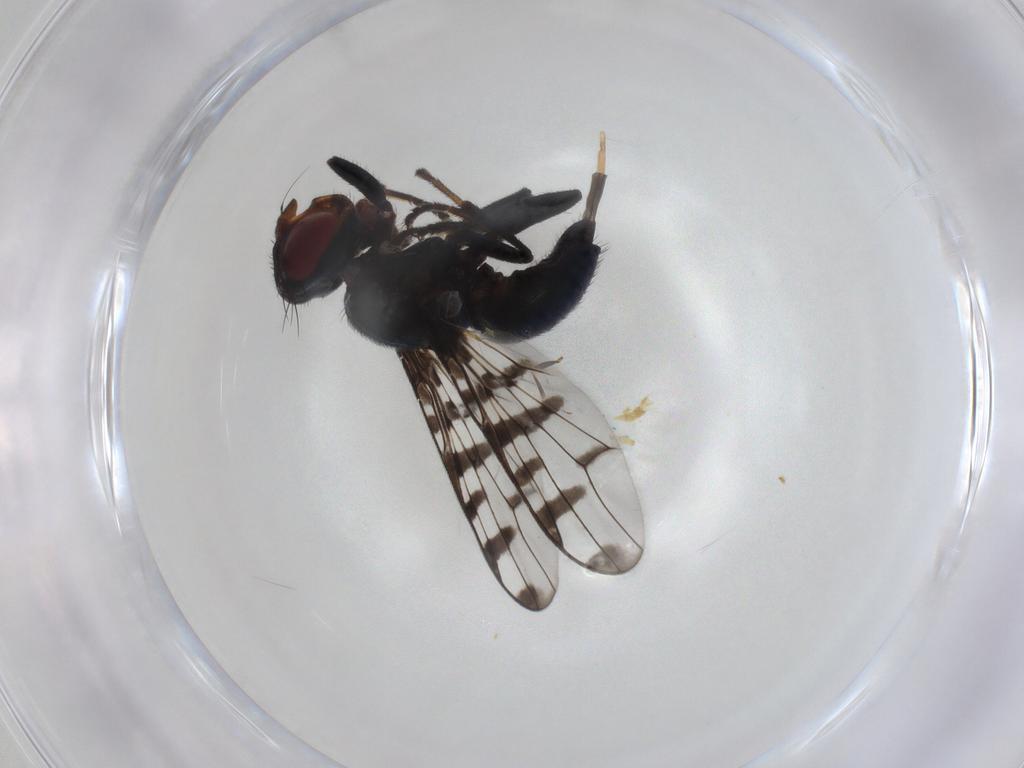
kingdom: Animalia
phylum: Arthropoda
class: Insecta
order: Diptera
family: Platystomatidae
